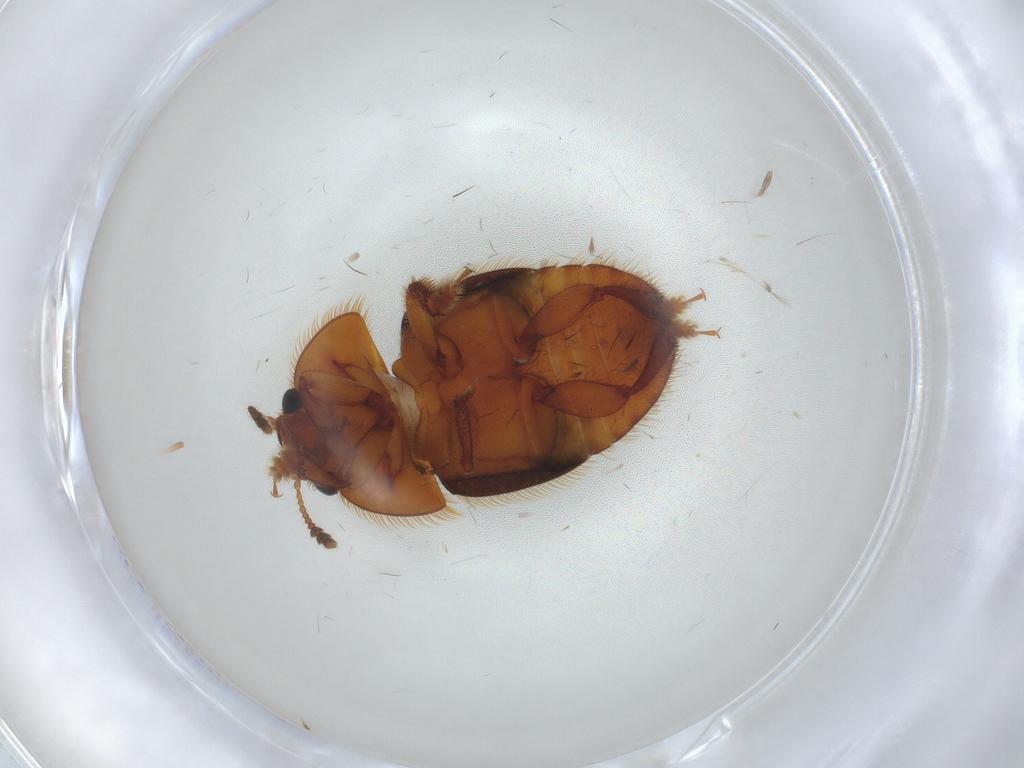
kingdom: Animalia
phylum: Arthropoda
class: Insecta
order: Coleoptera
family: Nitidulidae
